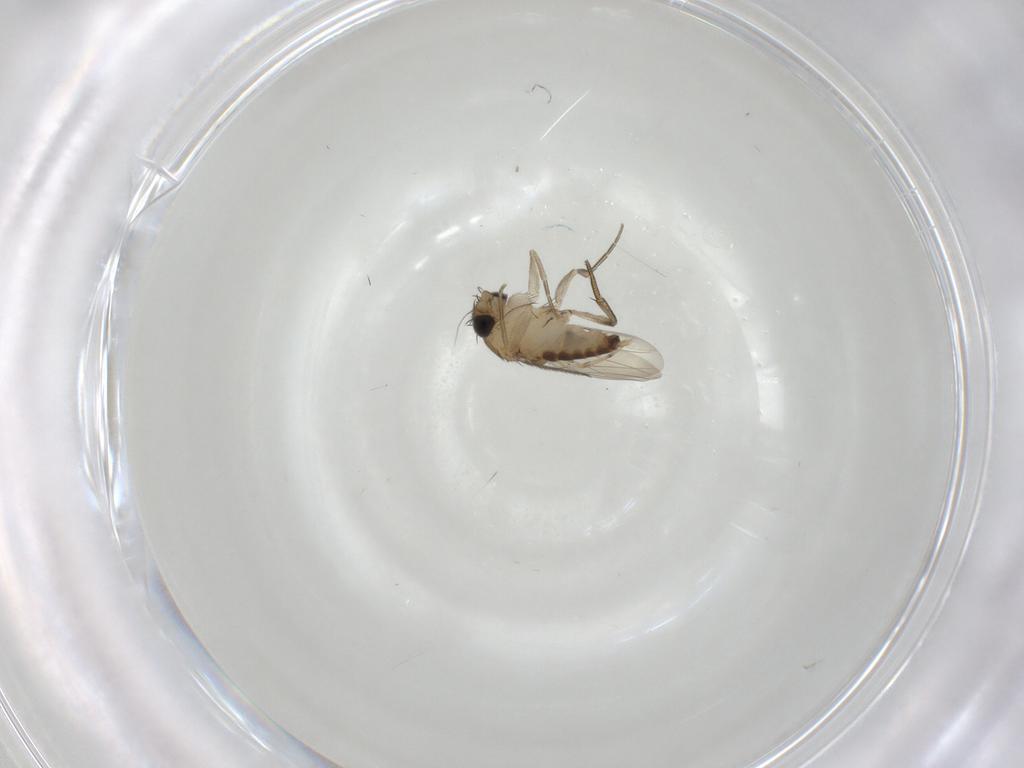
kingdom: Animalia
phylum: Arthropoda
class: Insecta
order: Diptera
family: Phoridae
